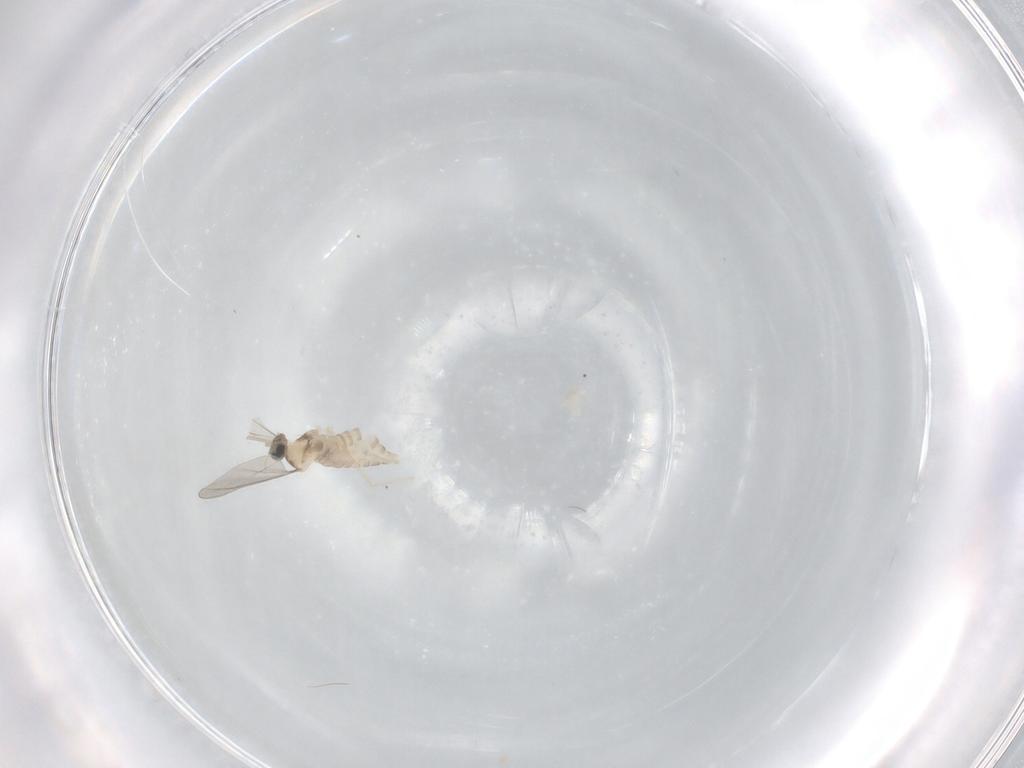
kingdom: Animalia
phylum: Arthropoda
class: Insecta
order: Diptera
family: Cecidomyiidae
